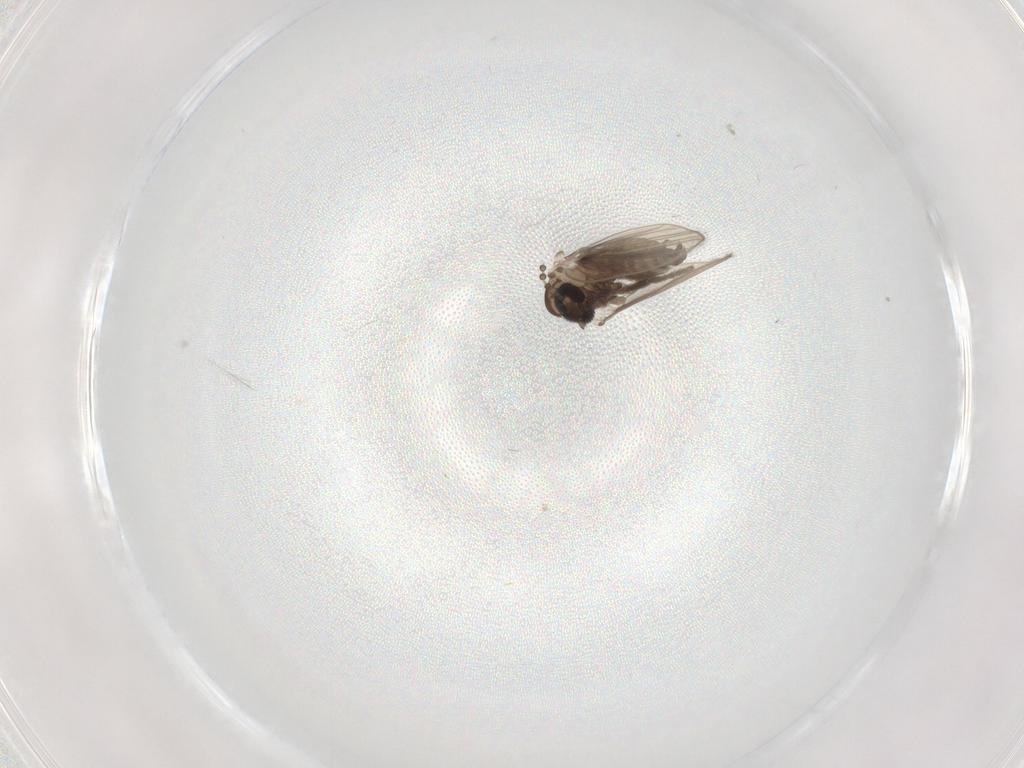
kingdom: Animalia
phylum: Arthropoda
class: Insecta
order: Diptera
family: Psychodidae
